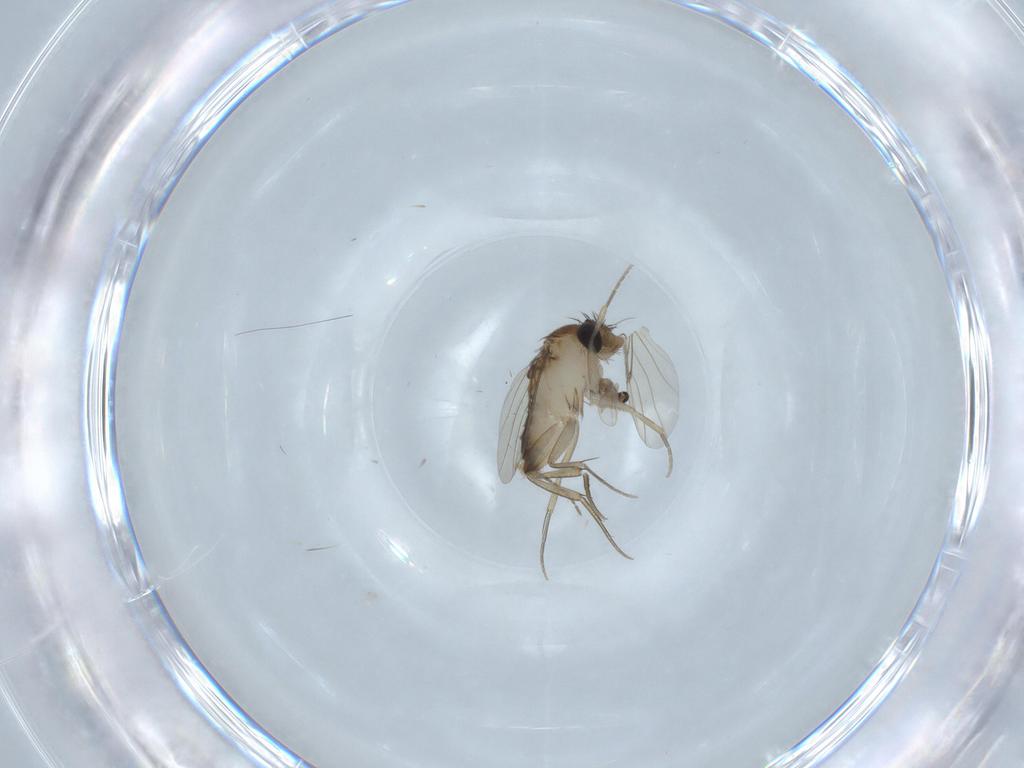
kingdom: Animalia
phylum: Arthropoda
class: Insecta
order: Diptera
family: Phoridae
